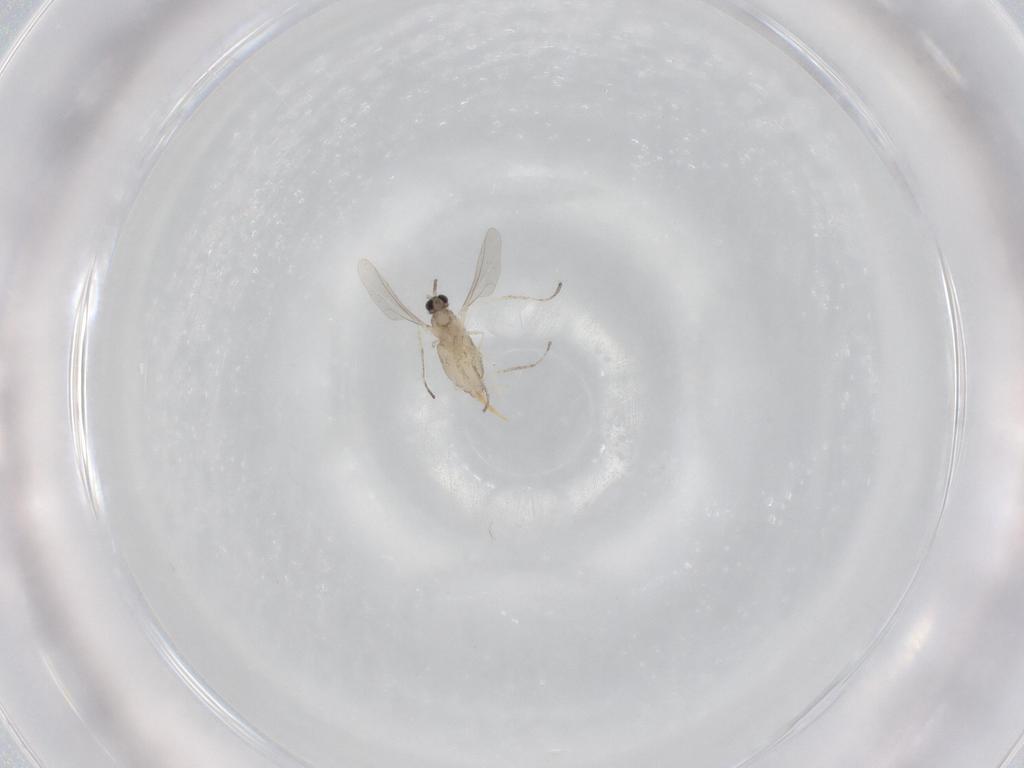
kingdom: Animalia
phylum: Arthropoda
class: Insecta
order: Diptera
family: Cecidomyiidae
